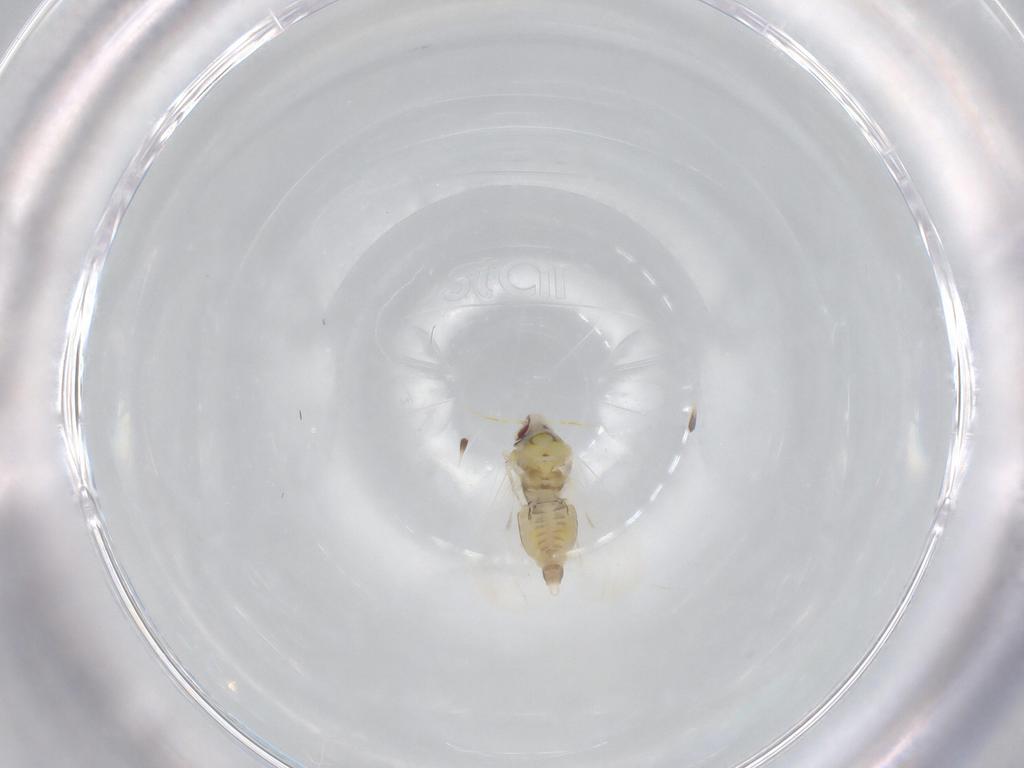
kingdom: Animalia
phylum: Arthropoda
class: Insecta
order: Hemiptera
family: Aleyrodidae
